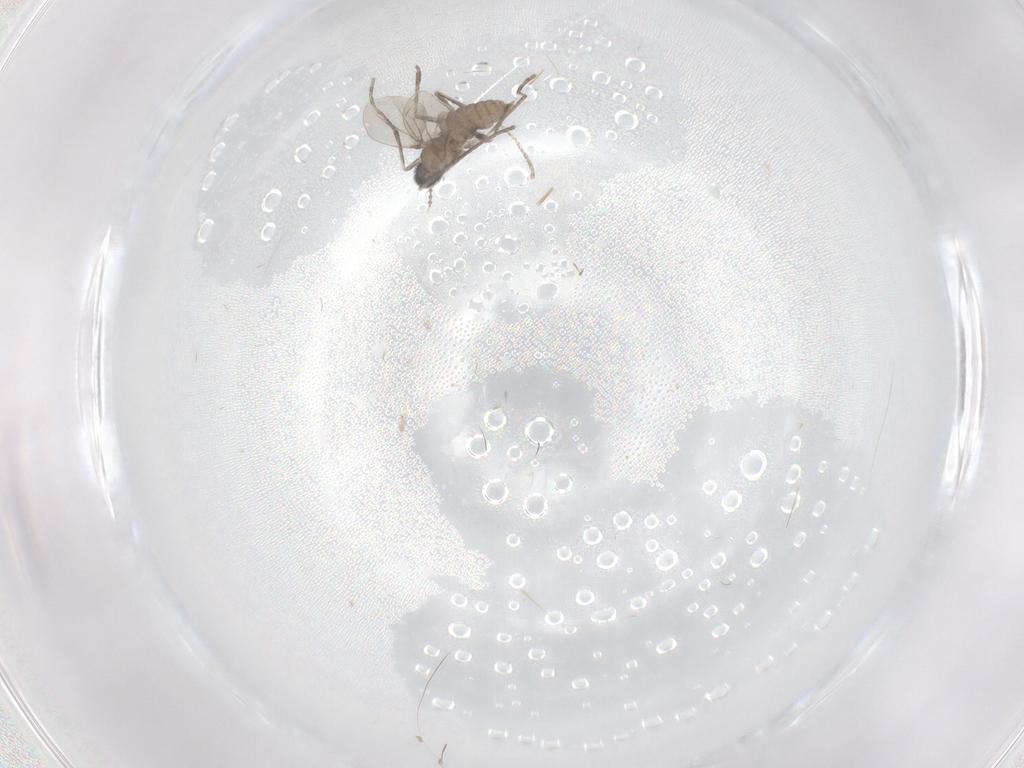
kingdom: Animalia
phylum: Arthropoda
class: Insecta
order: Diptera
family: Cecidomyiidae
